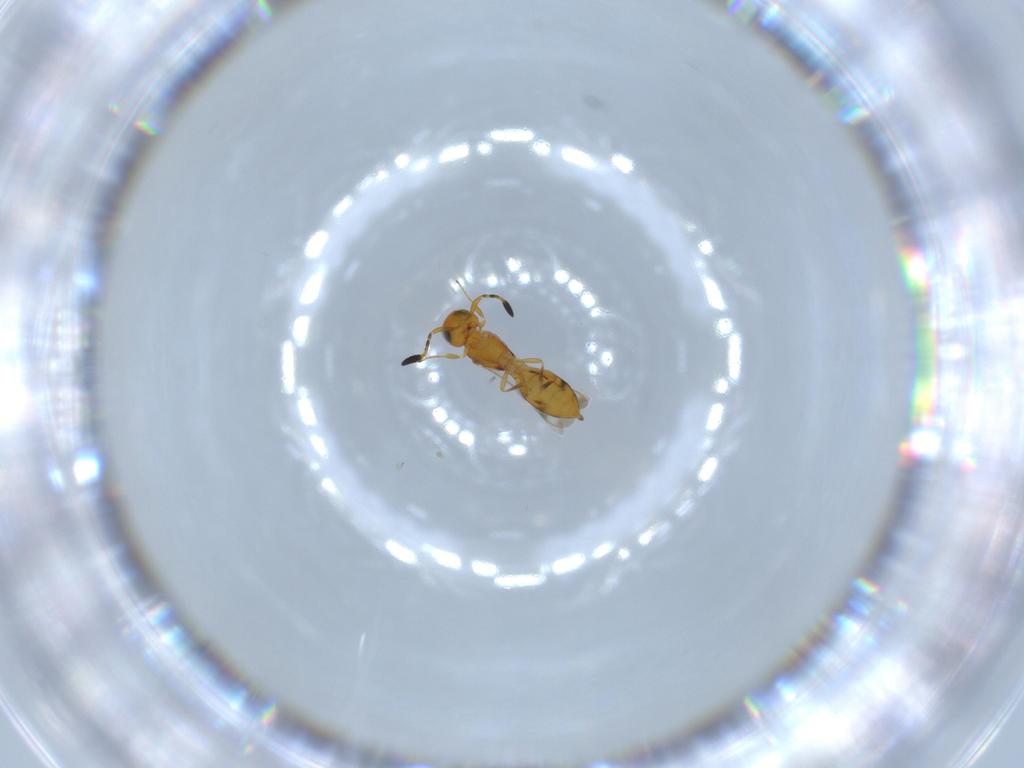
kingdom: Animalia
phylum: Arthropoda
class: Insecta
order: Hymenoptera
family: Scelionidae
